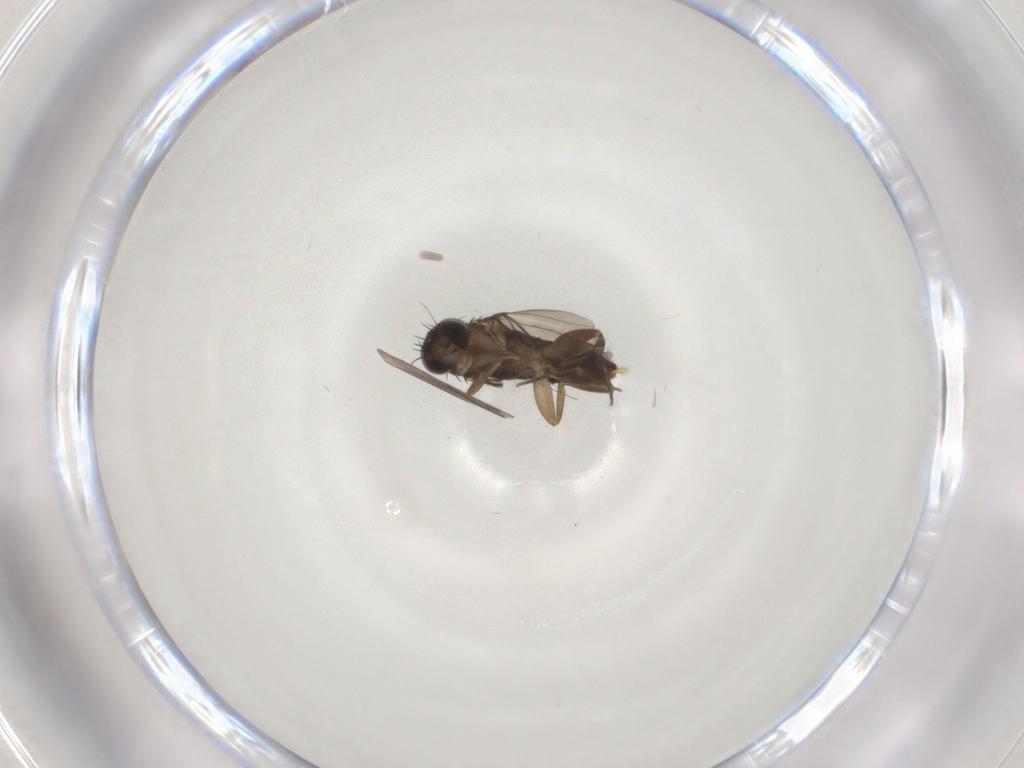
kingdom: Animalia
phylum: Arthropoda
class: Insecta
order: Diptera
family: Phoridae
